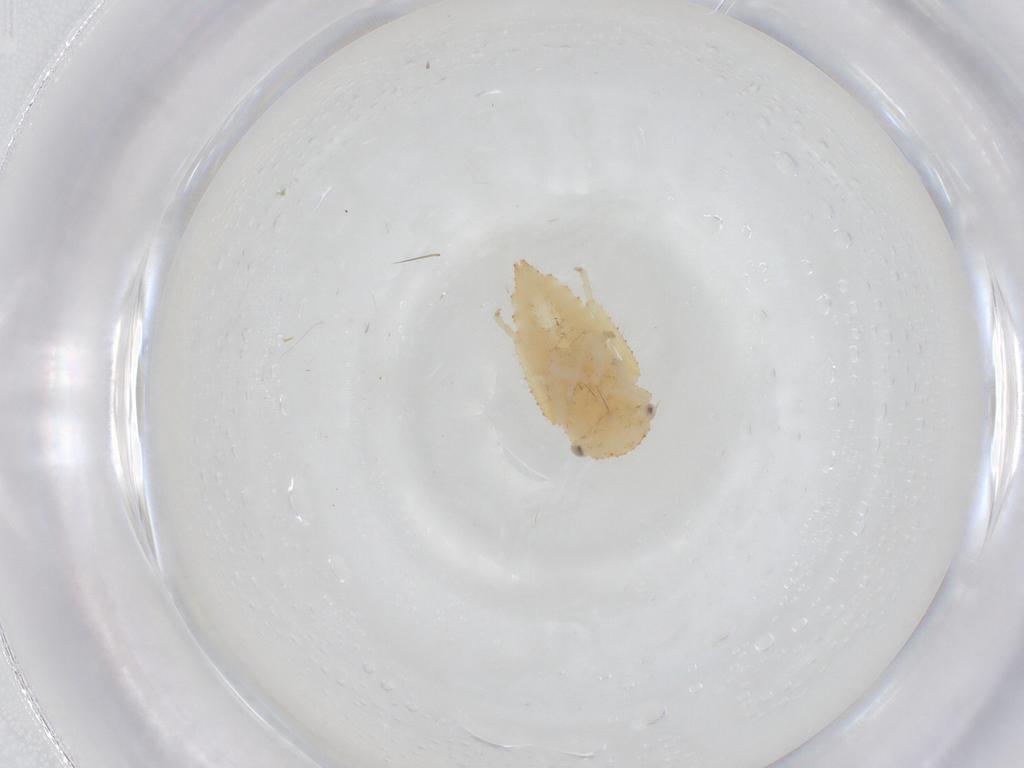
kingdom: Animalia
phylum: Arthropoda
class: Insecta
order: Hemiptera
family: Cicadellidae
